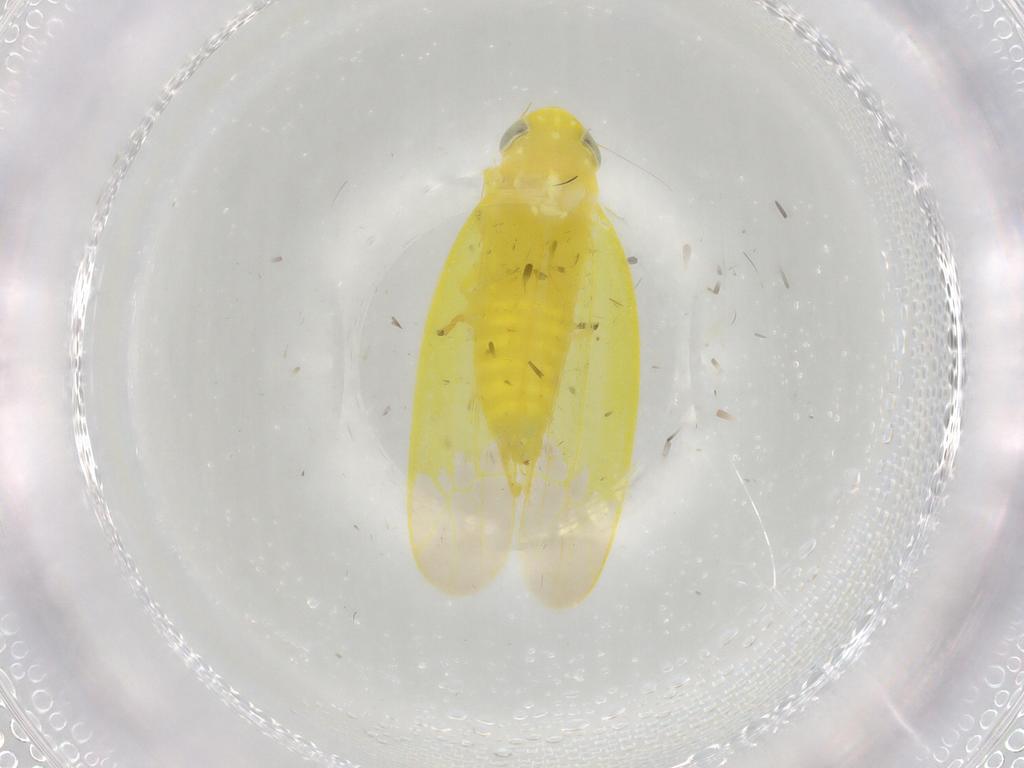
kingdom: Animalia
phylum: Arthropoda
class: Insecta
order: Hemiptera
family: Cicadellidae
